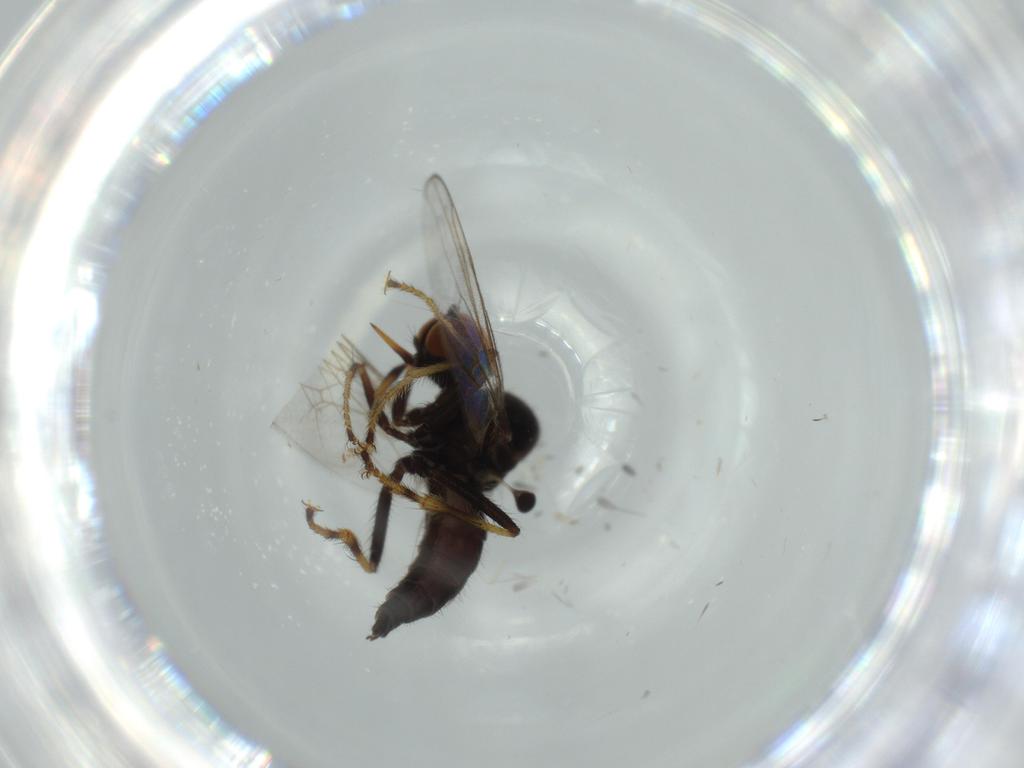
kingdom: Animalia
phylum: Arthropoda
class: Insecta
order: Diptera
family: Hybotidae
